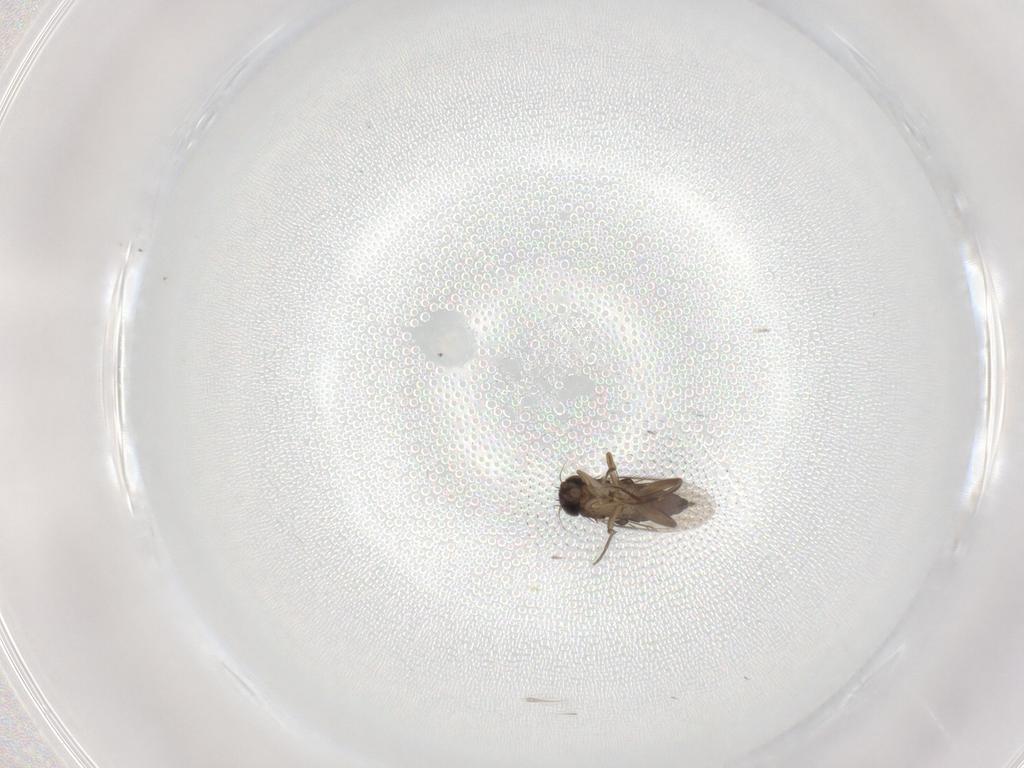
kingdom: Animalia
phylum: Arthropoda
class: Insecta
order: Diptera
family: Phoridae
